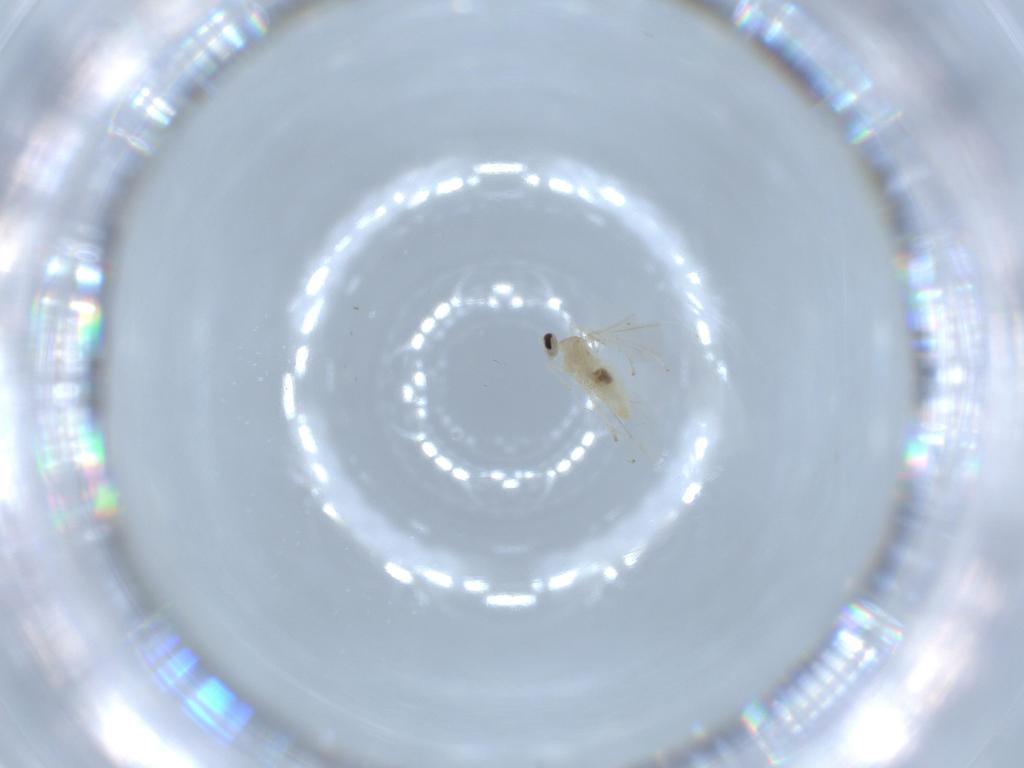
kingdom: Animalia
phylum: Arthropoda
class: Insecta
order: Diptera
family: Cecidomyiidae
